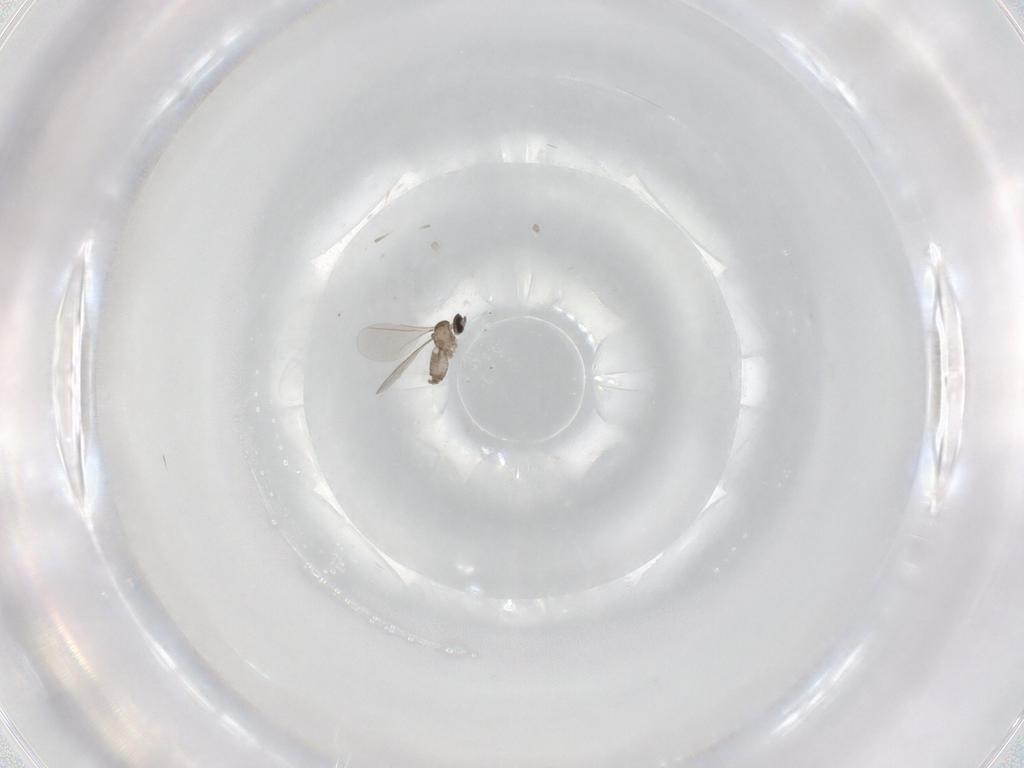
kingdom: Animalia
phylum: Arthropoda
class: Insecta
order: Diptera
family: Cecidomyiidae
